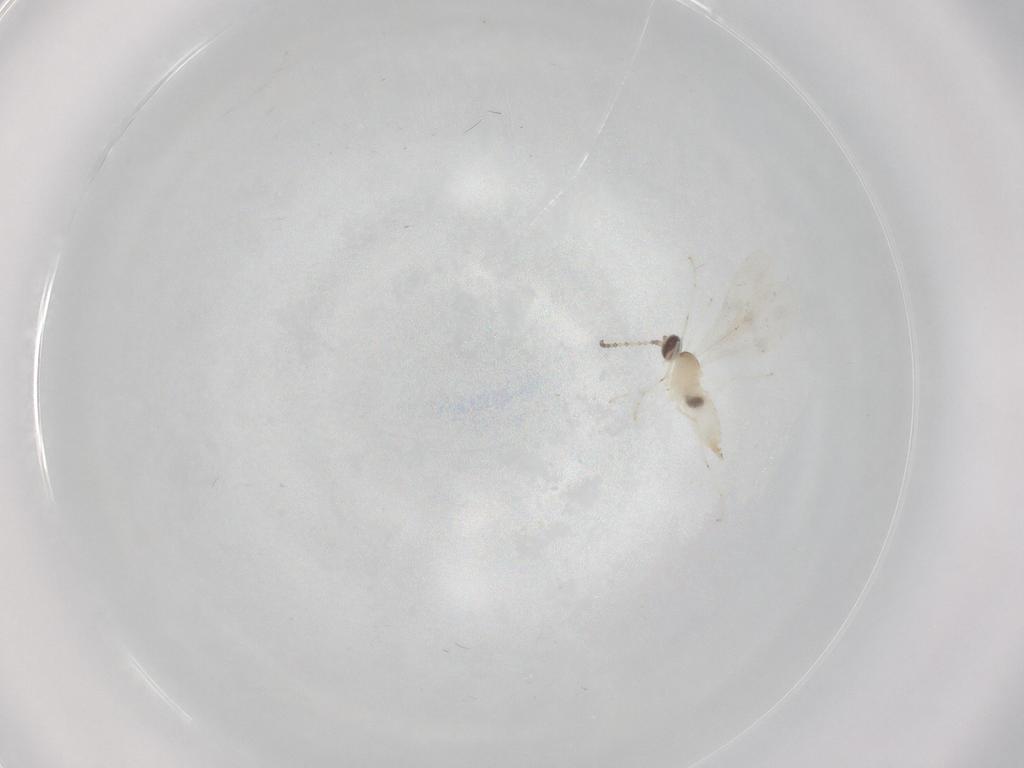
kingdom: Animalia
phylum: Arthropoda
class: Insecta
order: Diptera
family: Cecidomyiidae
